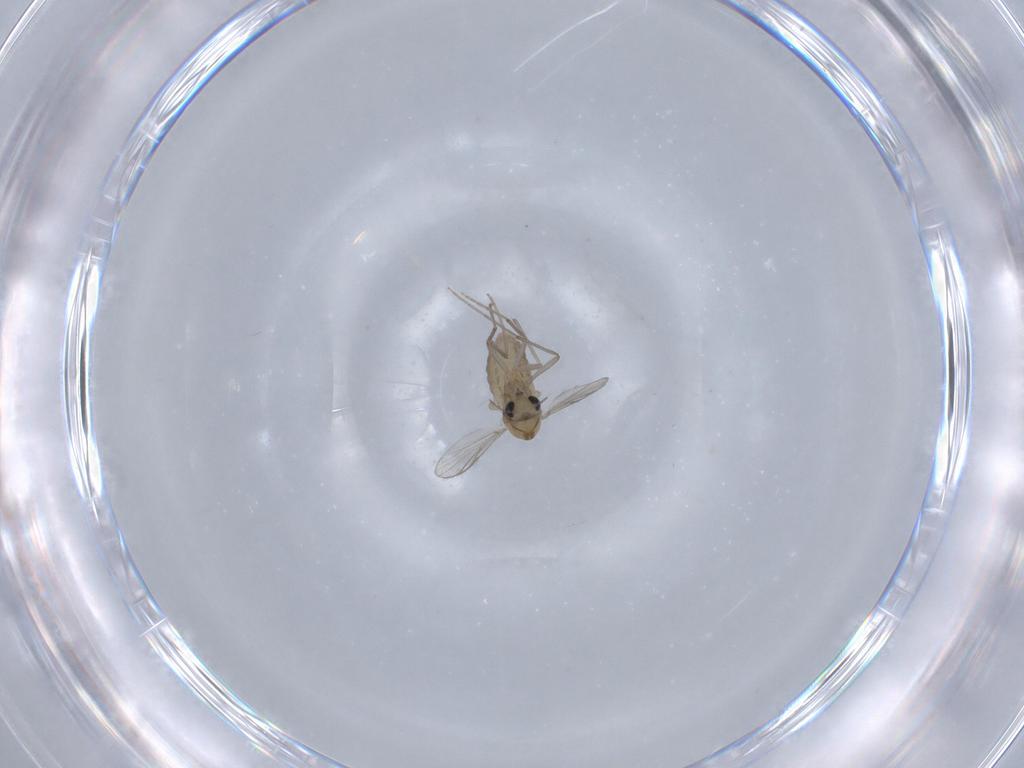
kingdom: Animalia
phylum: Arthropoda
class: Insecta
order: Diptera
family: Chironomidae
